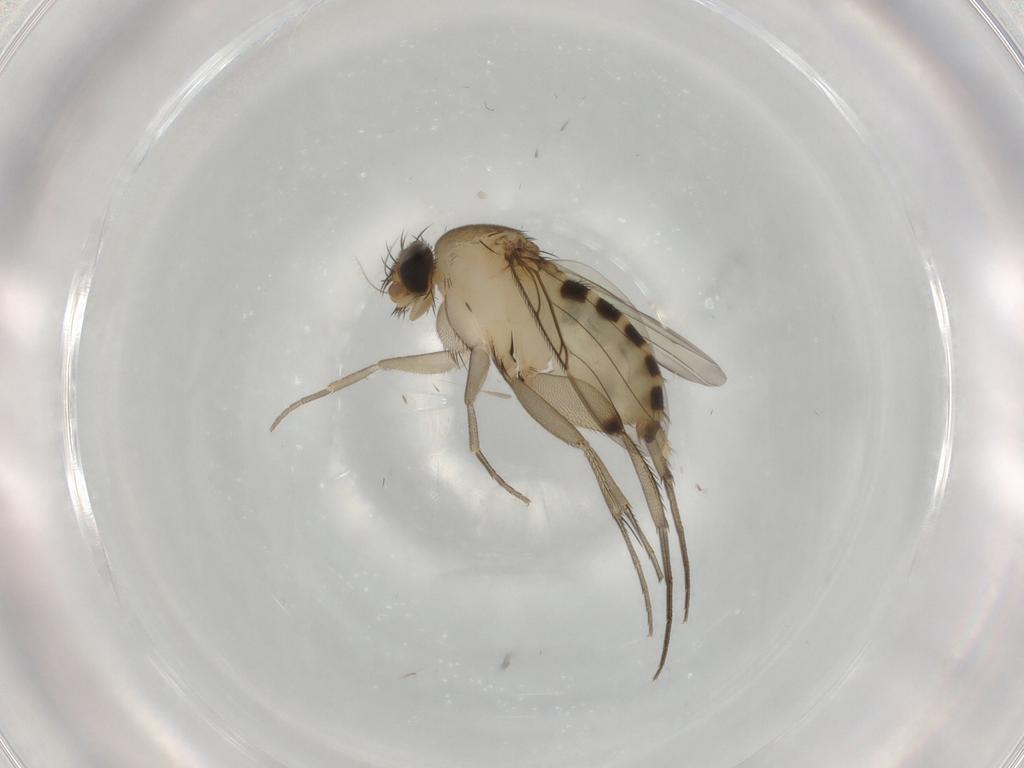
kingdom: Animalia
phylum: Arthropoda
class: Insecta
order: Diptera
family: Phoridae
